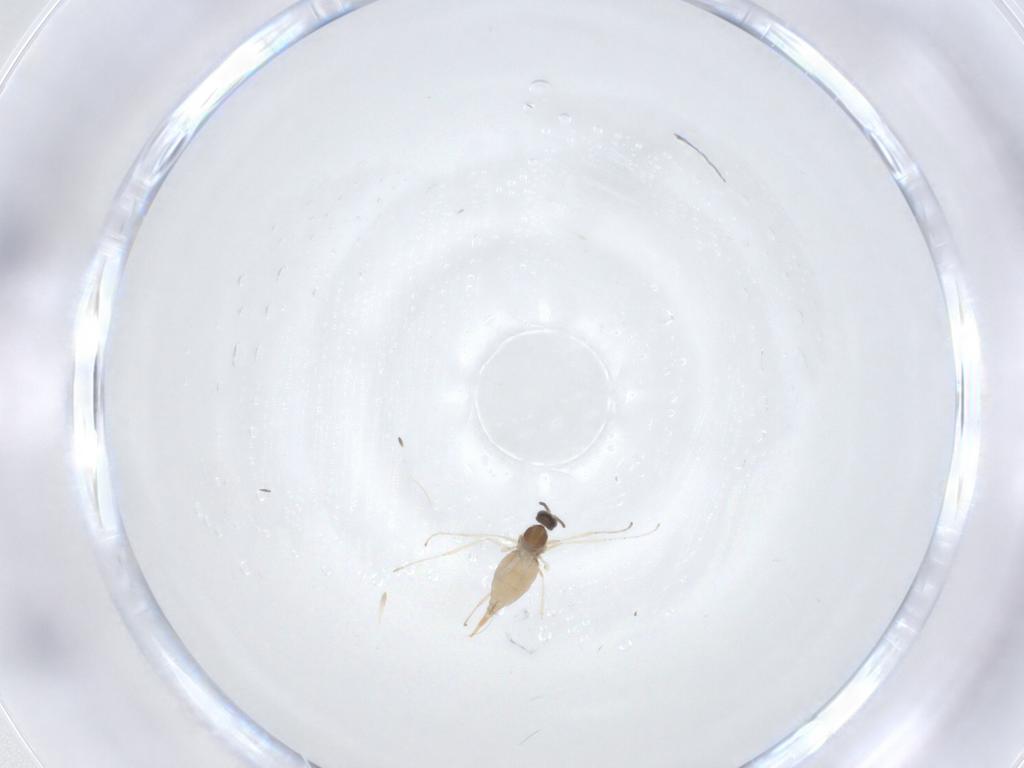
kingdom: Animalia
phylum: Arthropoda
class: Insecta
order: Diptera
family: Cecidomyiidae
